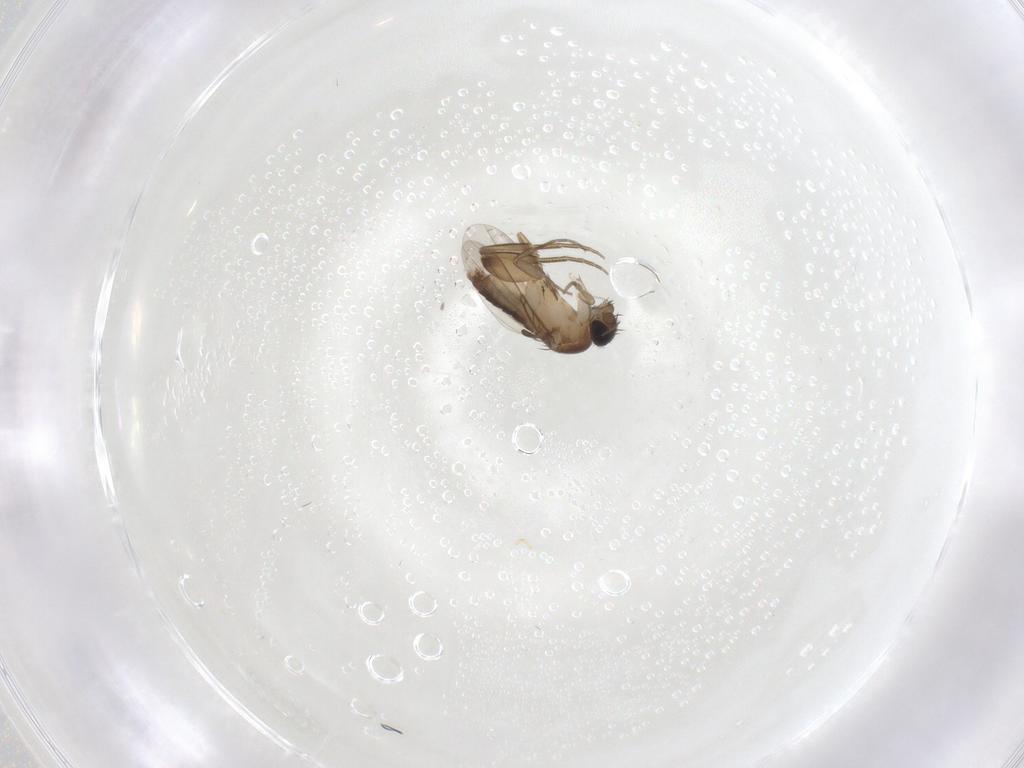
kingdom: Animalia
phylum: Arthropoda
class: Insecta
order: Diptera
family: Phoridae
